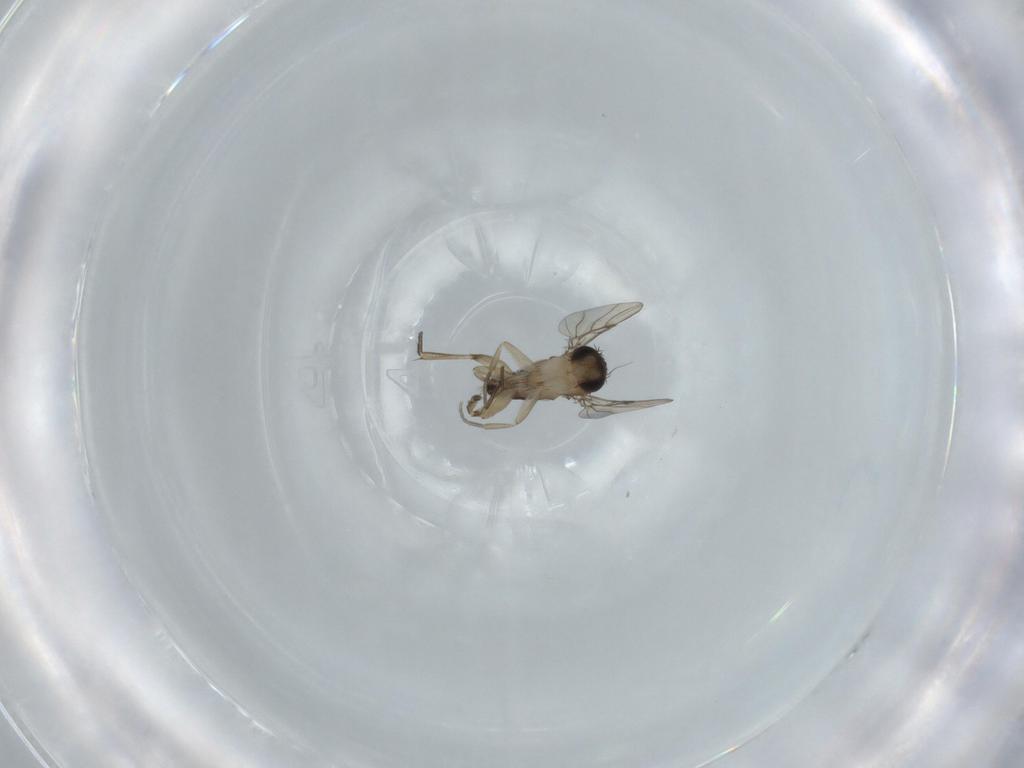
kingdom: Animalia
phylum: Arthropoda
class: Insecta
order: Diptera
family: Phoridae
